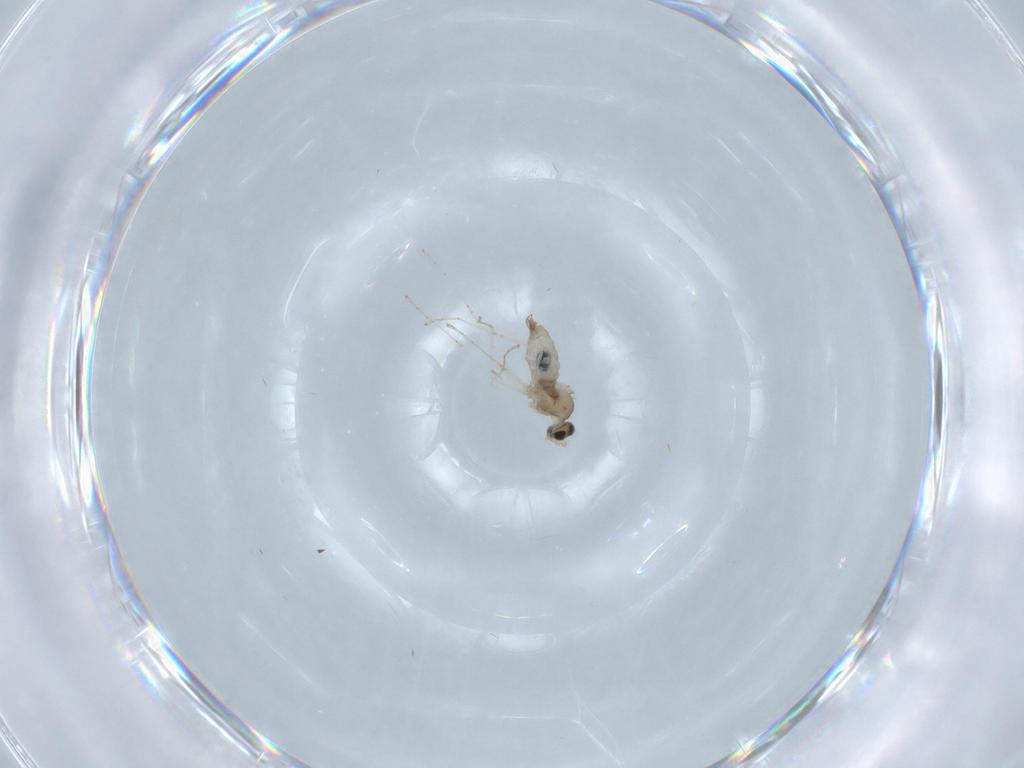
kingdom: Animalia
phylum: Arthropoda
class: Insecta
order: Diptera
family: Cecidomyiidae
